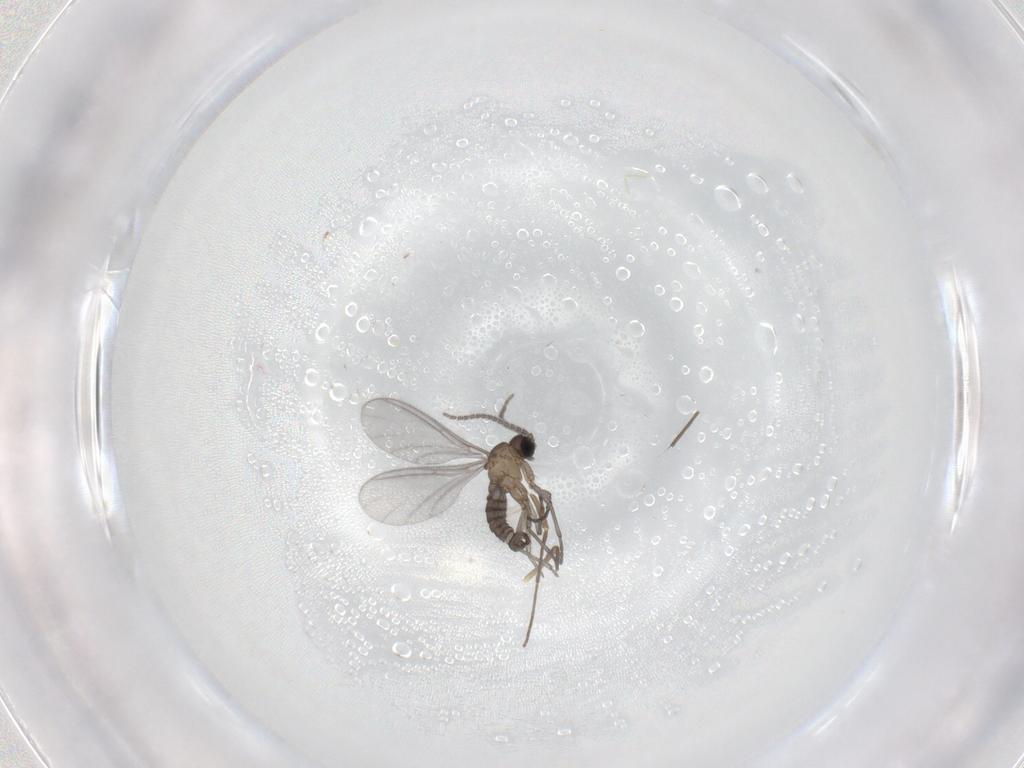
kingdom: Animalia
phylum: Arthropoda
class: Insecta
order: Diptera
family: Chironomidae
